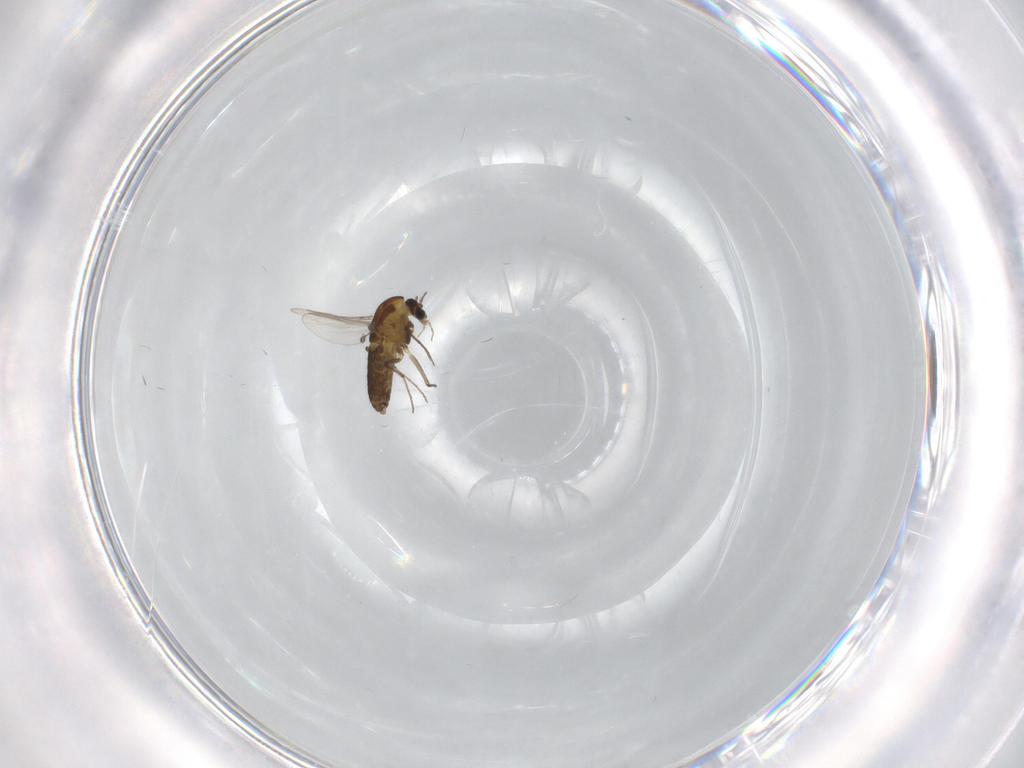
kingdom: Animalia
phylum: Arthropoda
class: Insecta
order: Diptera
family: Chironomidae
